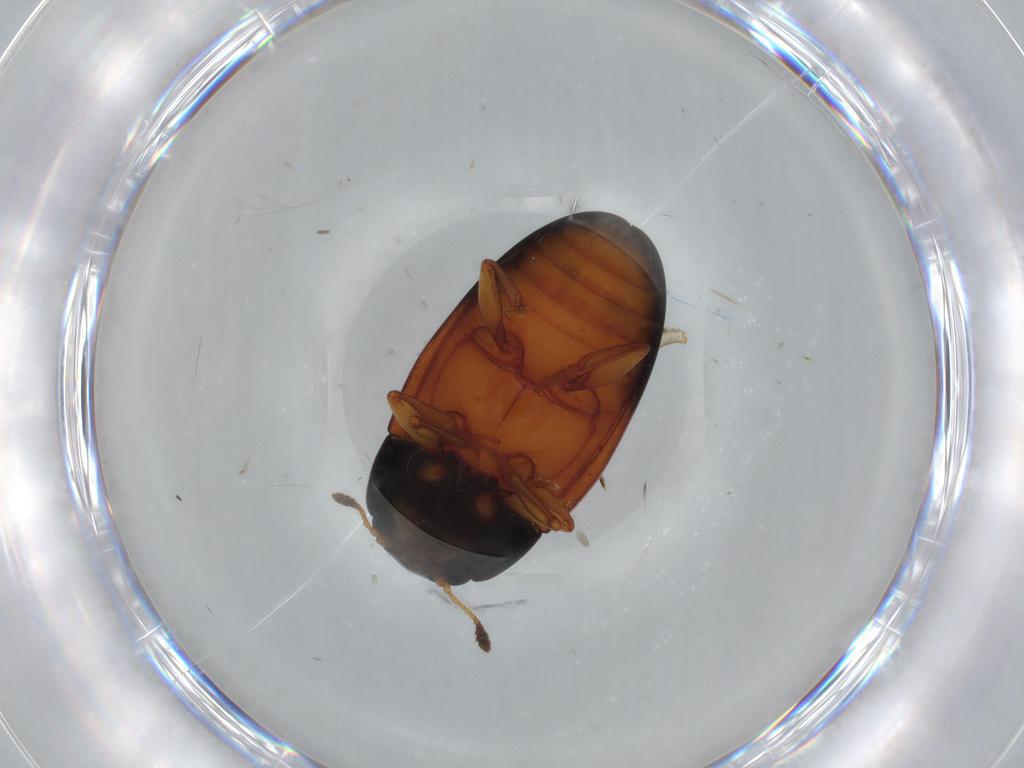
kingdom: Animalia
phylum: Arthropoda
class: Insecta
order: Coleoptera
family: Erotylidae
